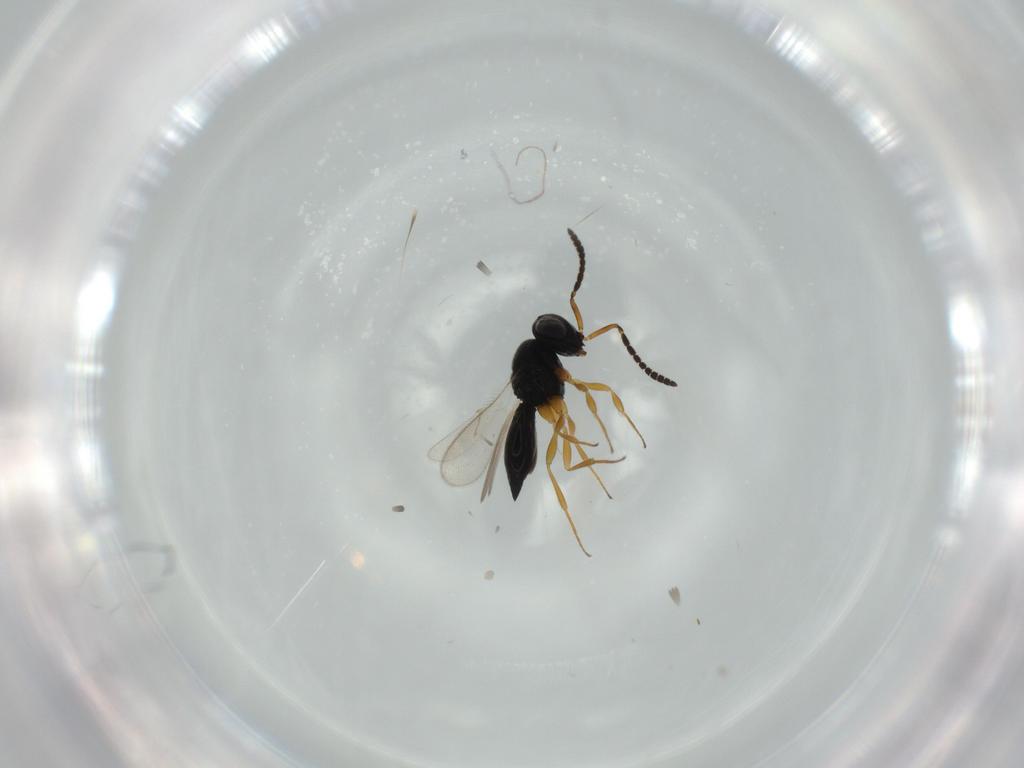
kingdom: Animalia
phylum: Arthropoda
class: Insecta
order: Hymenoptera
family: Scelionidae
